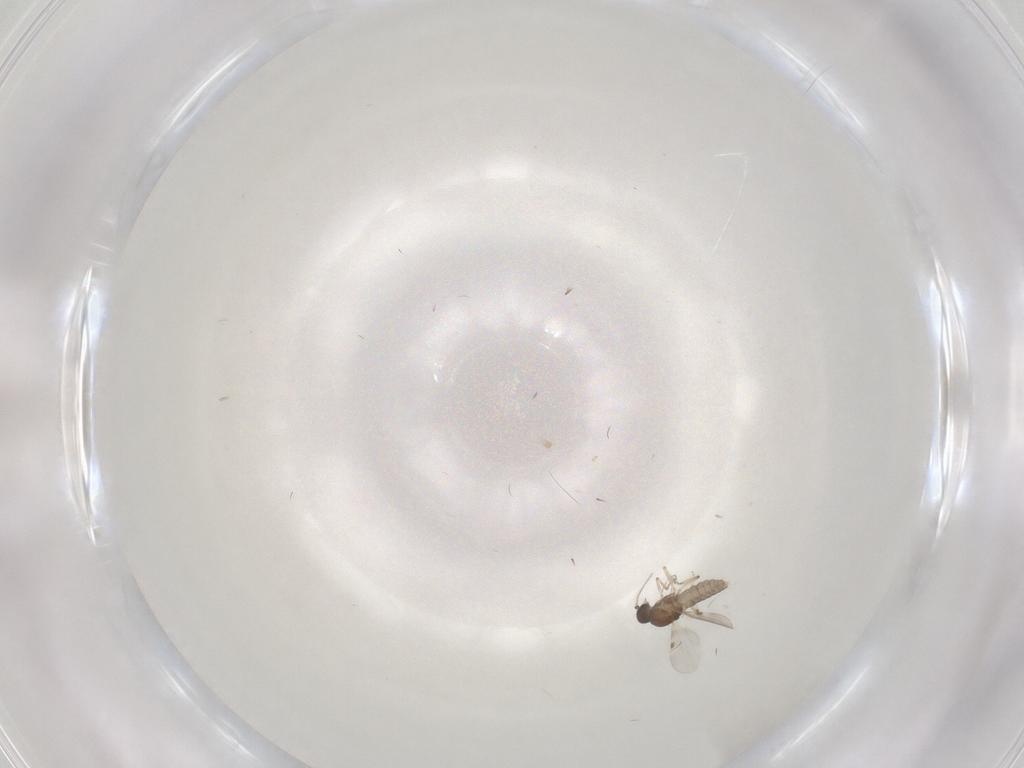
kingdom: Animalia
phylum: Arthropoda
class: Insecta
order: Diptera
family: Cecidomyiidae
